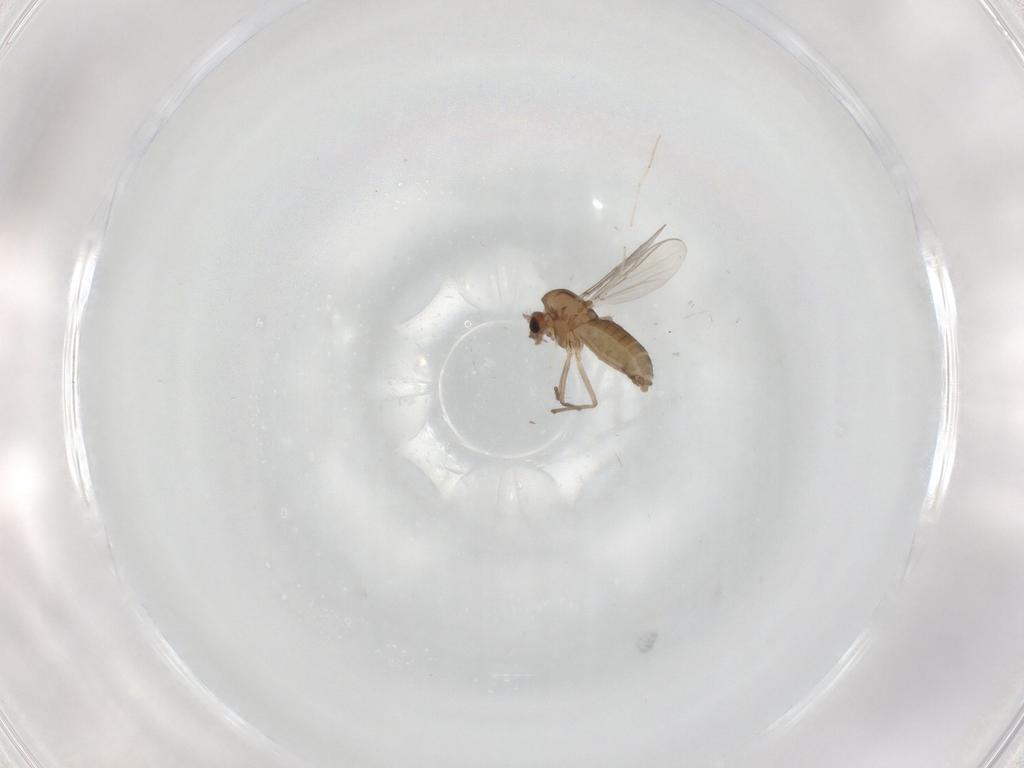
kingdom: Animalia
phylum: Arthropoda
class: Insecta
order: Diptera
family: Chironomidae
